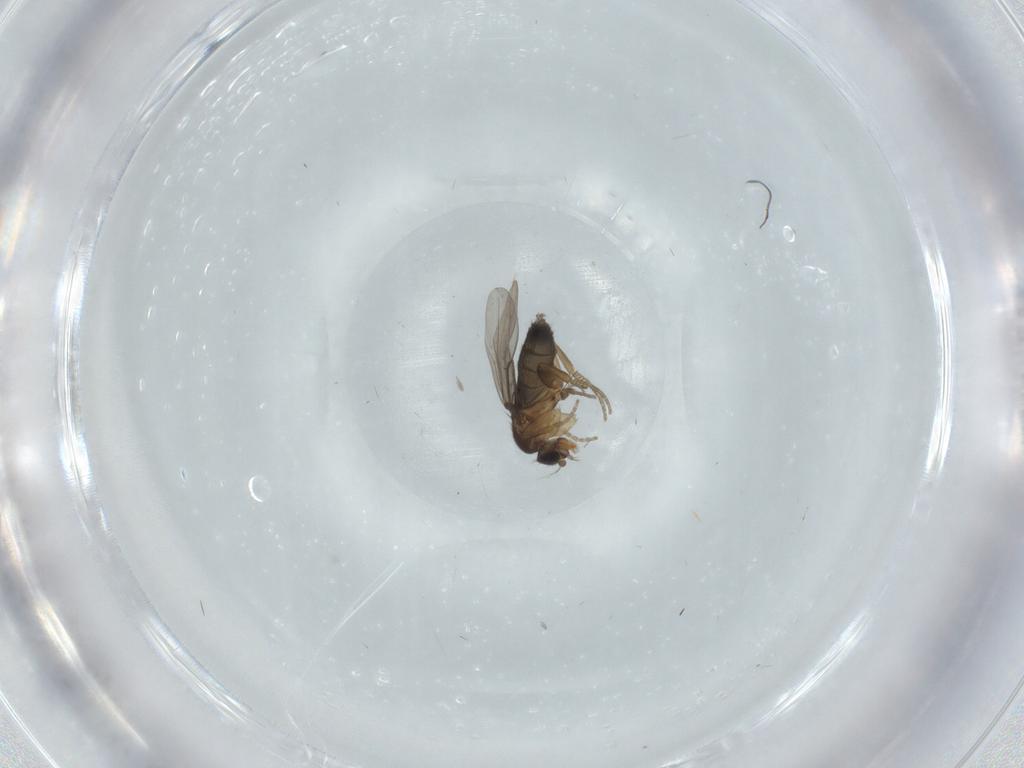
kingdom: Animalia
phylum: Arthropoda
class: Insecta
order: Diptera
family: Phoridae
